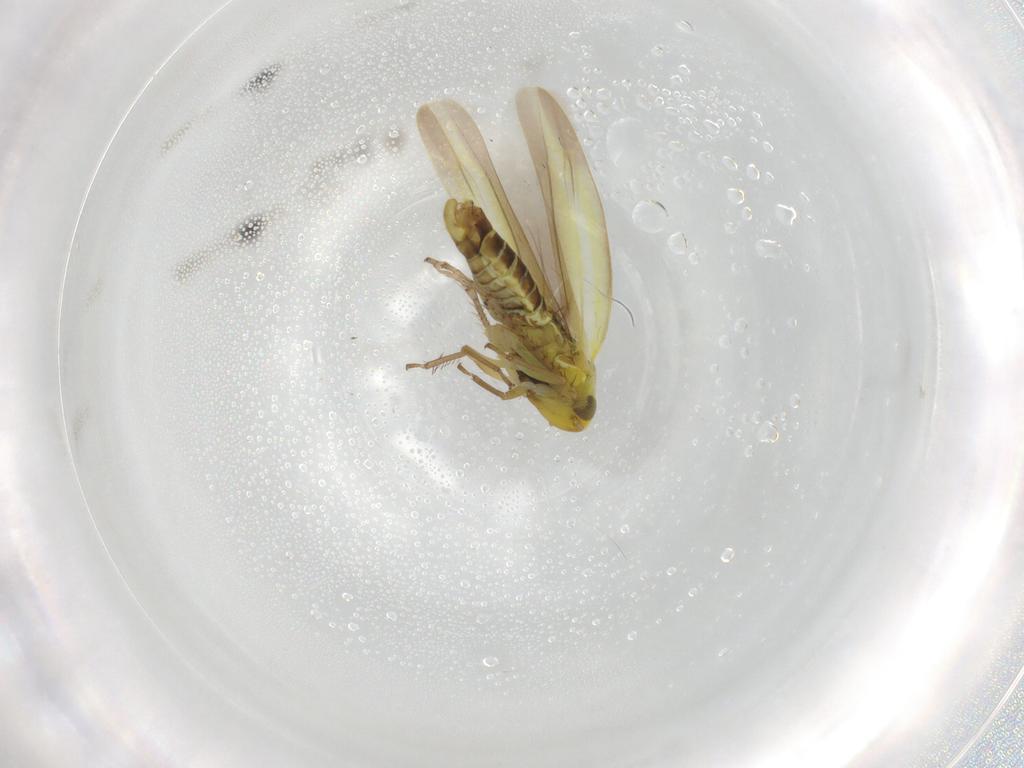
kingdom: Animalia
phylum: Arthropoda
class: Insecta
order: Hemiptera
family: Cicadellidae
